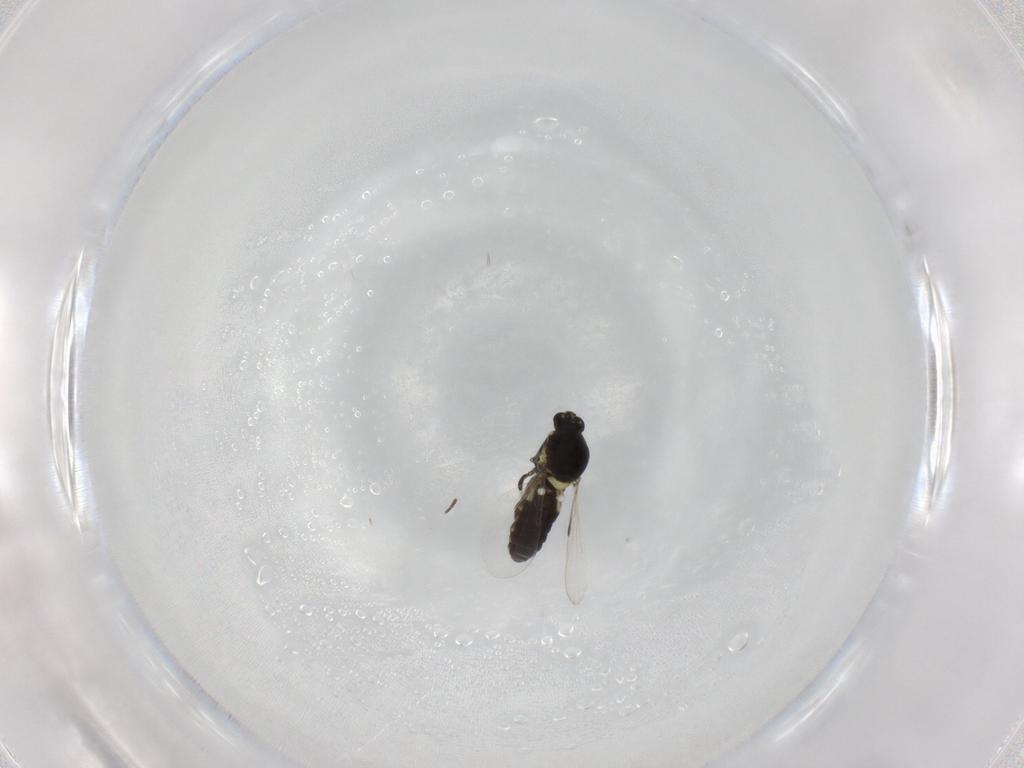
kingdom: Animalia
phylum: Arthropoda
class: Insecta
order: Diptera
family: Ceratopogonidae
